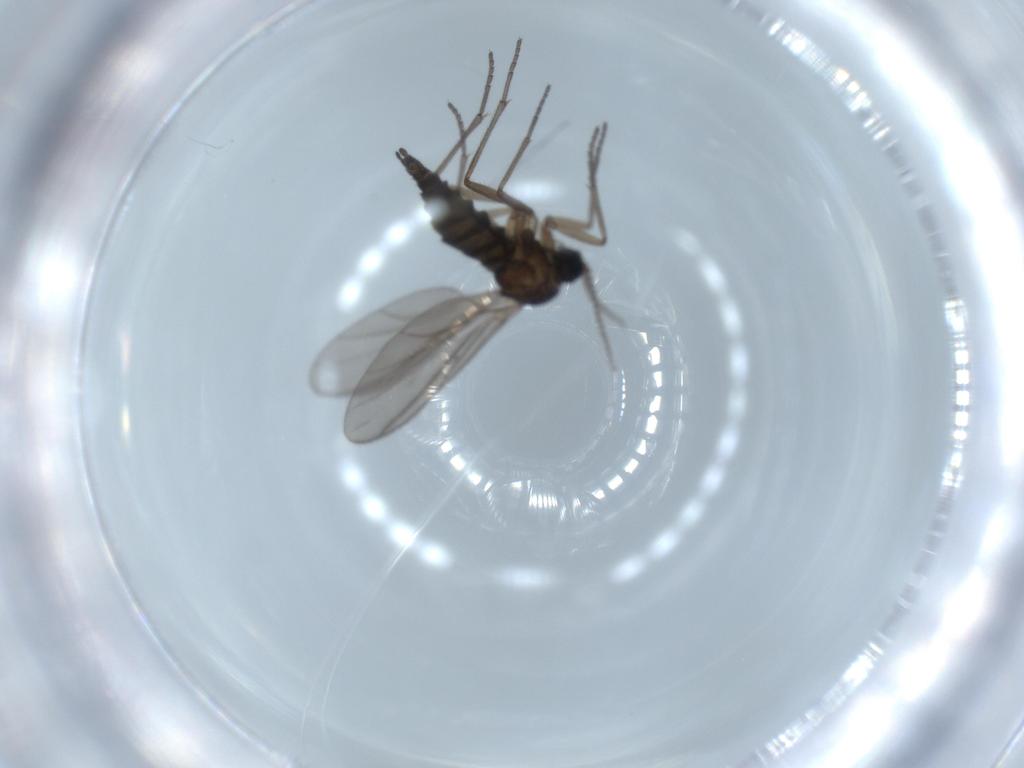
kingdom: Animalia
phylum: Arthropoda
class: Insecta
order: Diptera
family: Sciaridae
